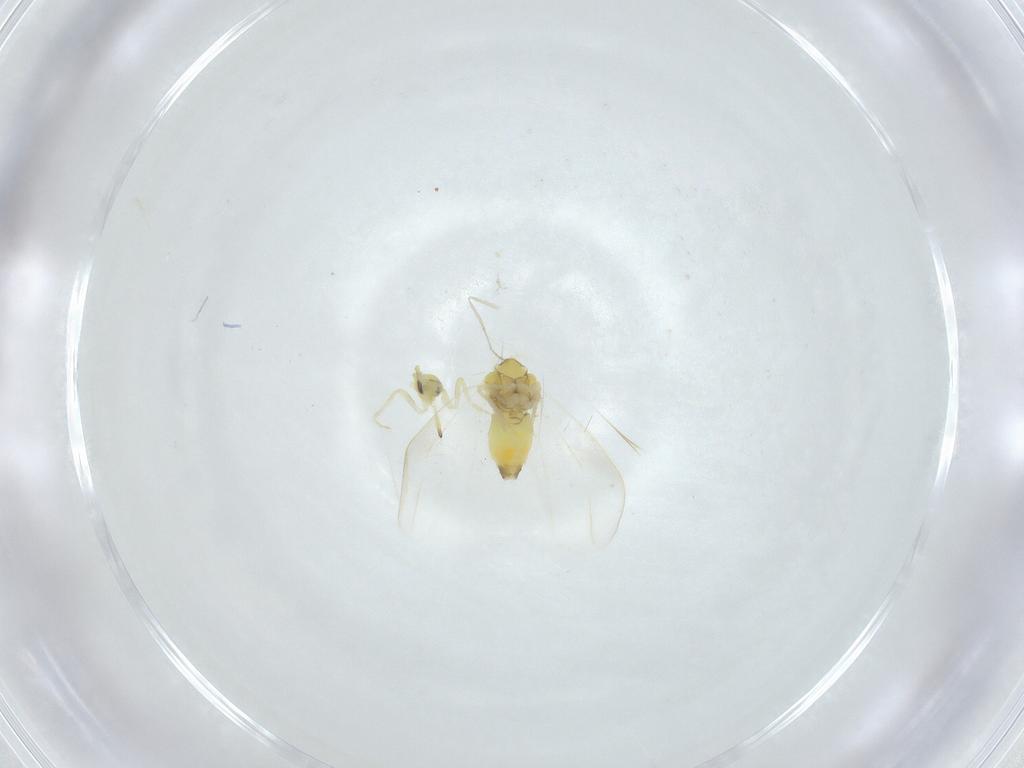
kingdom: Animalia
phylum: Arthropoda
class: Insecta
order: Hemiptera
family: Aleyrodidae
